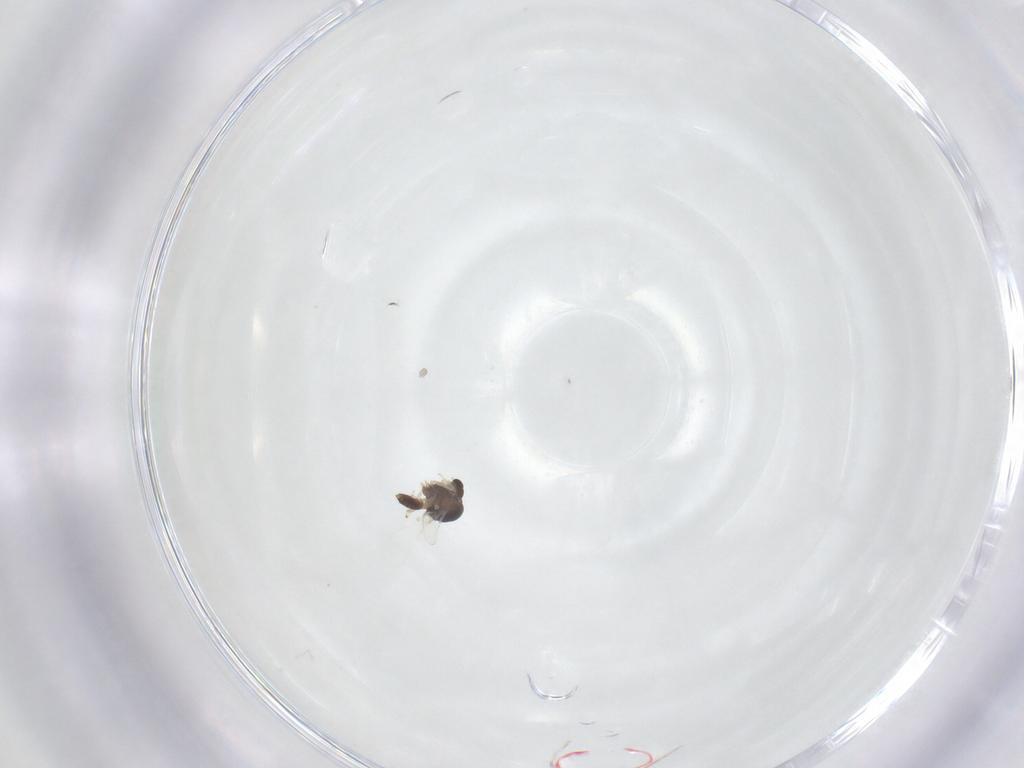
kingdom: Animalia
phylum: Arthropoda
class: Insecta
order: Diptera
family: Chironomidae
